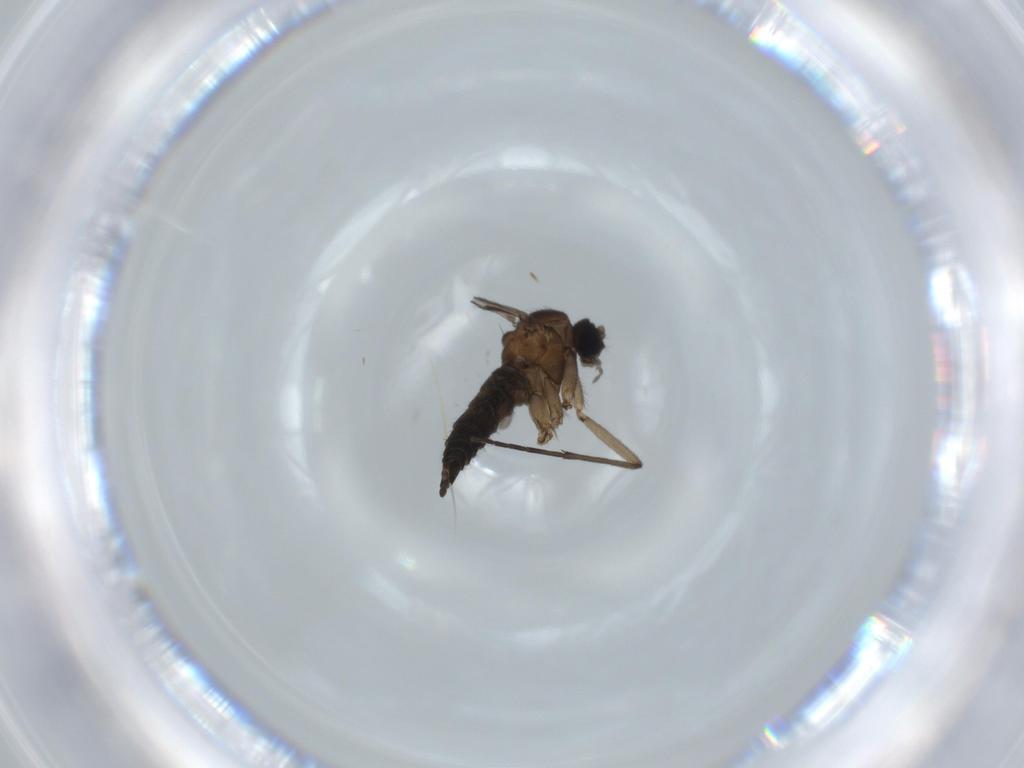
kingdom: Animalia
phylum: Arthropoda
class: Insecta
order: Diptera
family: Sciaridae
